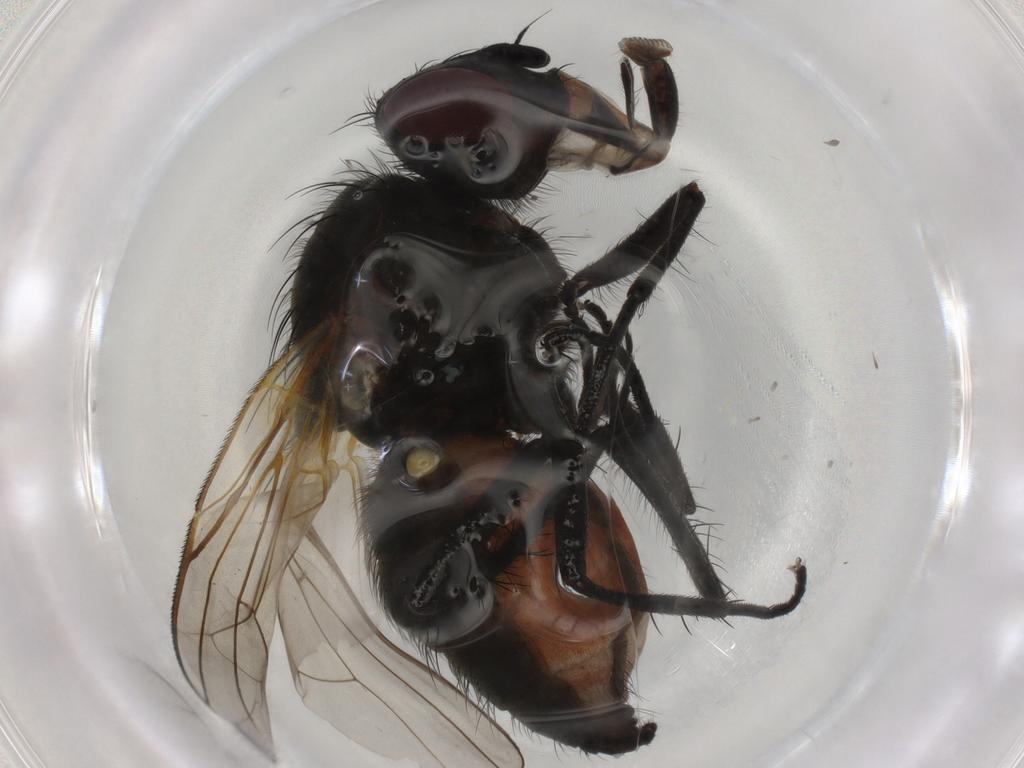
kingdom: Animalia
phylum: Arthropoda
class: Insecta
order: Diptera
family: Anthomyiidae
